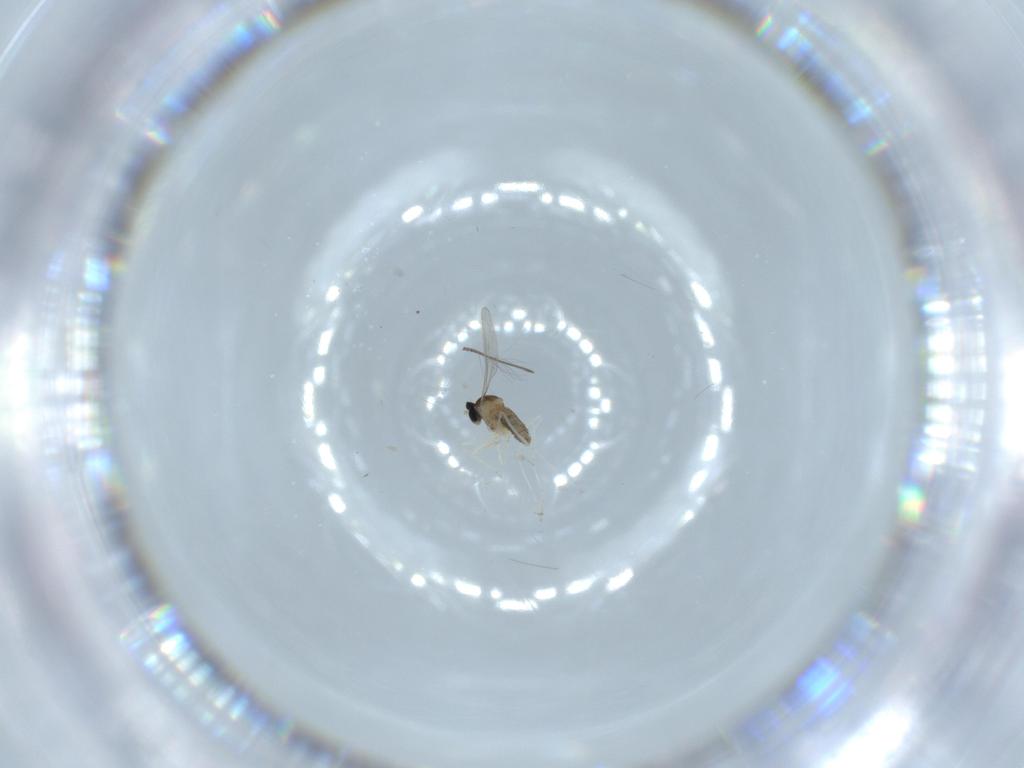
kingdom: Animalia
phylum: Arthropoda
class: Insecta
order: Diptera
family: Cecidomyiidae
